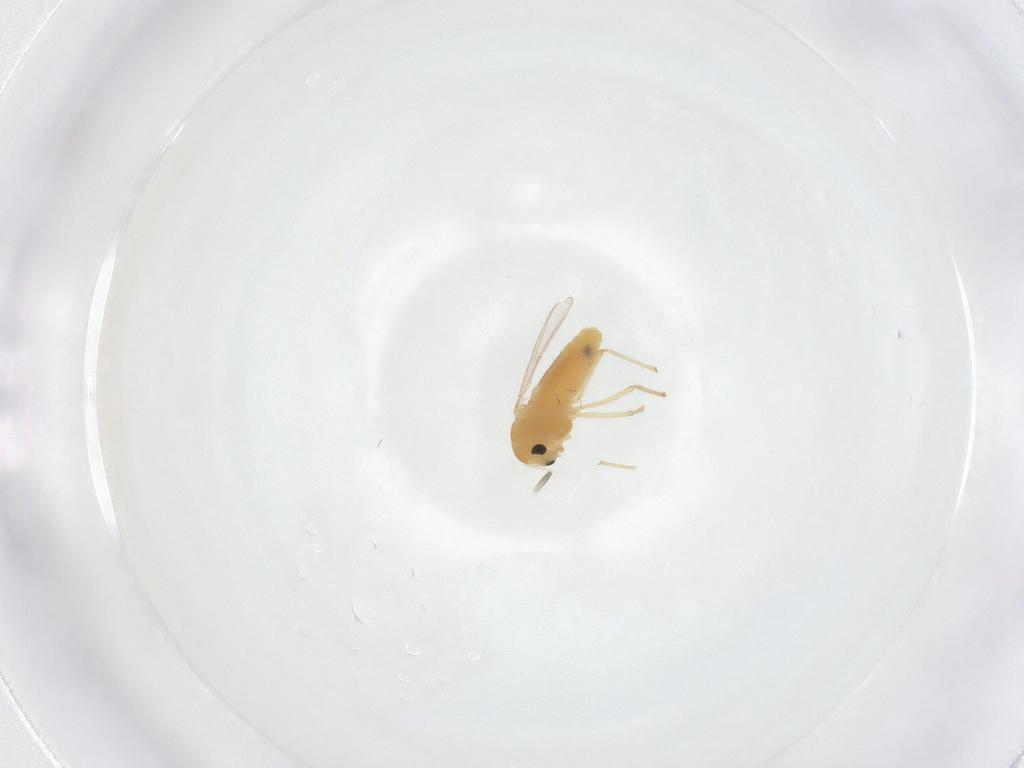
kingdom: Animalia
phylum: Arthropoda
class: Insecta
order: Diptera
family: Chironomidae
